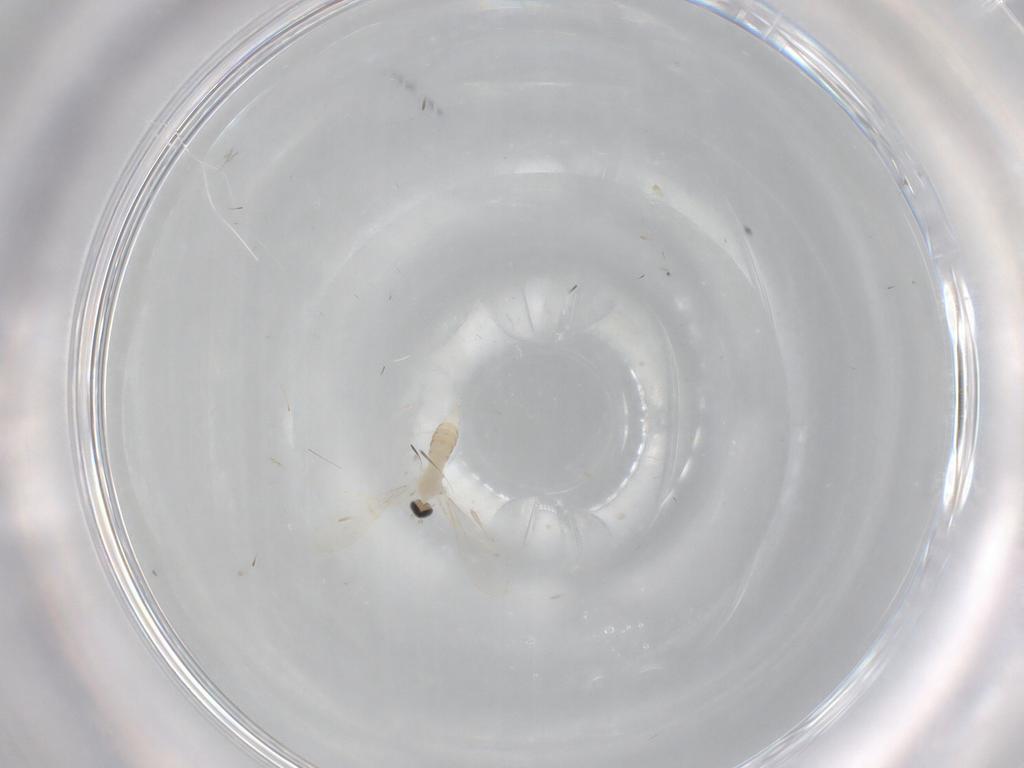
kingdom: Animalia
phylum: Arthropoda
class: Insecta
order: Diptera
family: Cecidomyiidae
